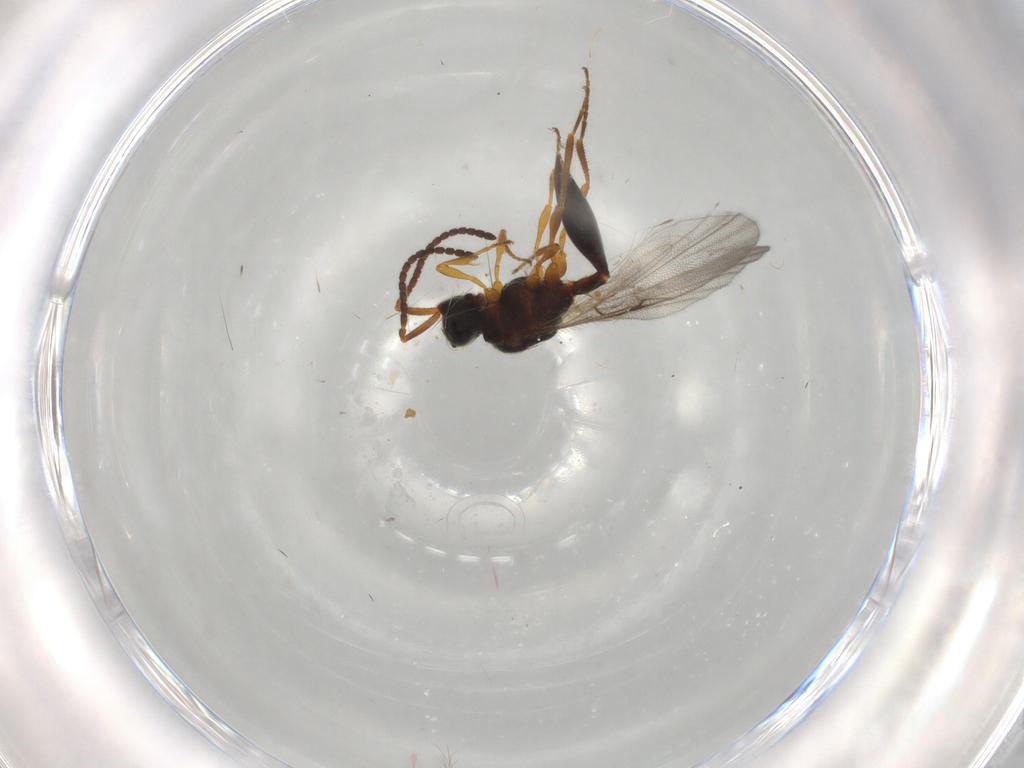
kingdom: Animalia
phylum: Arthropoda
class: Insecta
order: Hymenoptera
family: Diapriidae
